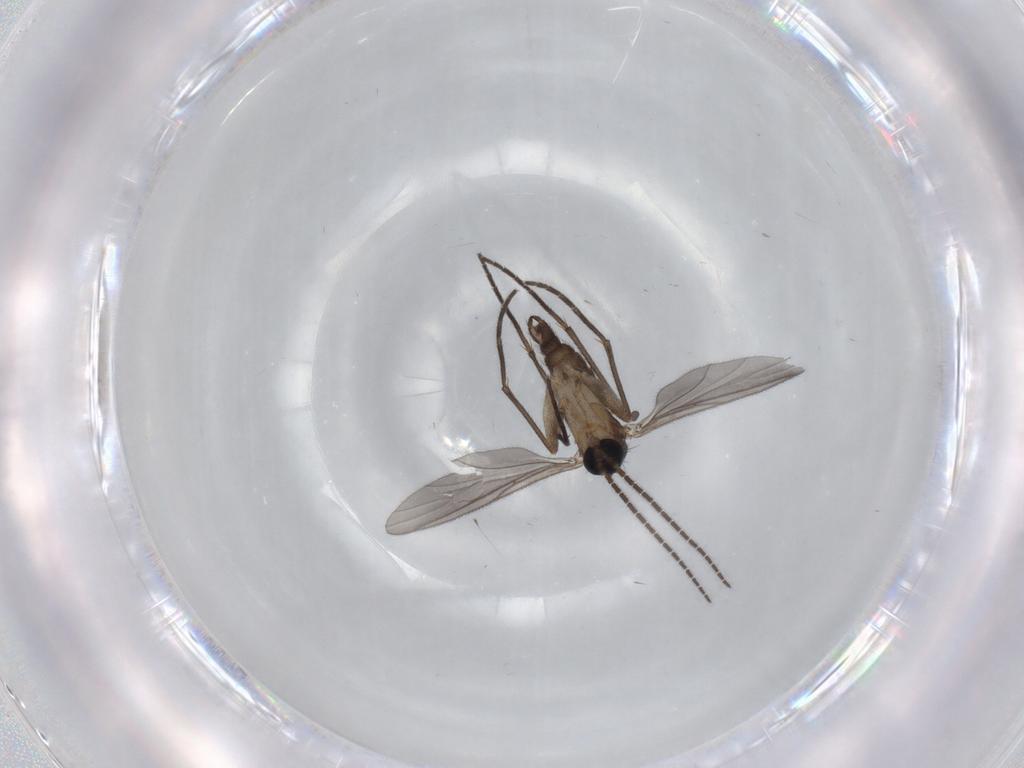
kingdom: Animalia
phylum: Arthropoda
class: Insecta
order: Diptera
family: Sciaridae
